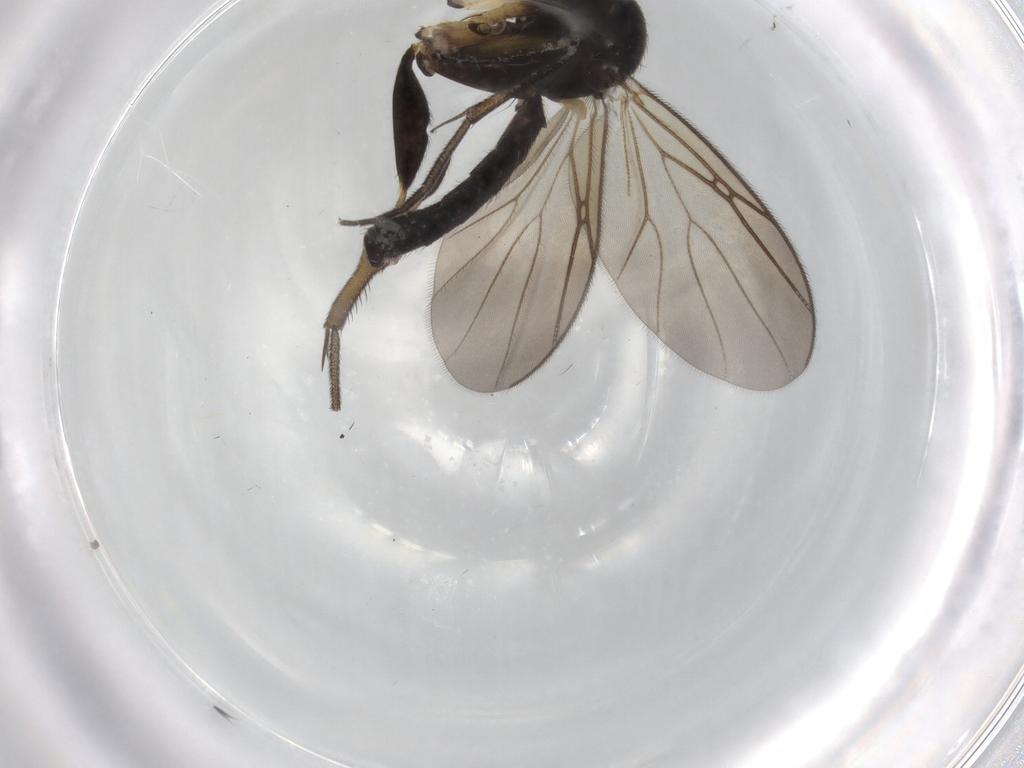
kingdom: Animalia
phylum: Arthropoda
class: Insecta
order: Diptera
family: Mycetophilidae
